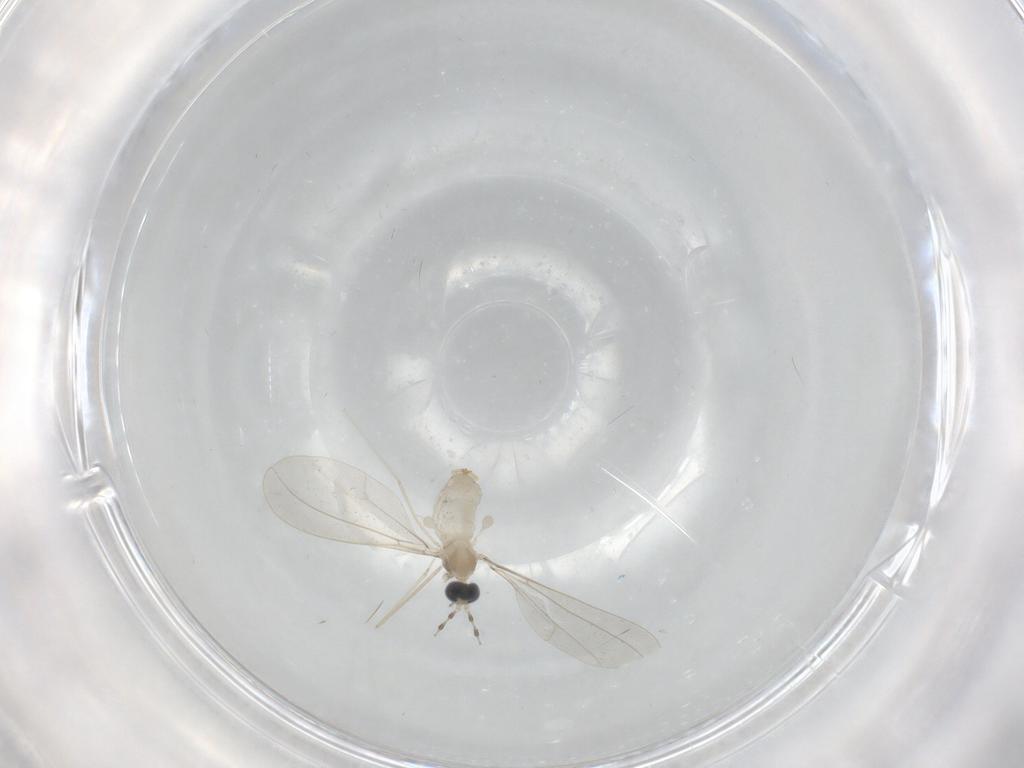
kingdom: Animalia
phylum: Arthropoda
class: Insecta
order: Diptera
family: Cecidomyiidae
